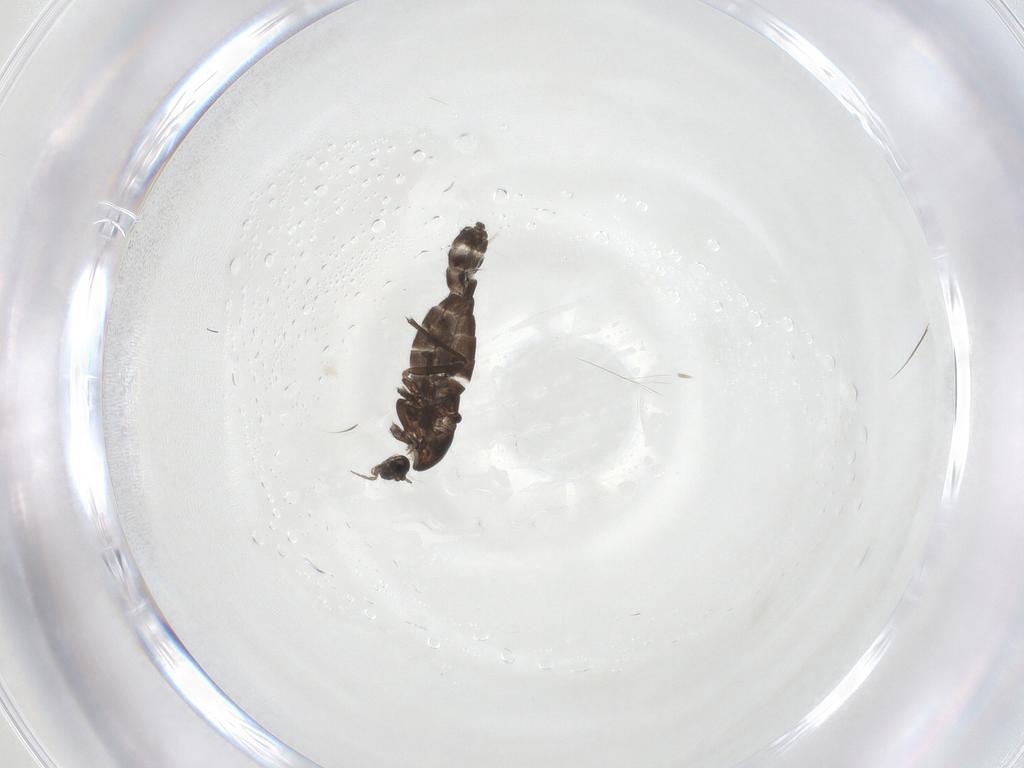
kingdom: Animalia
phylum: Arthropoda
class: Insecta
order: Diptera
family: Chironomidae
